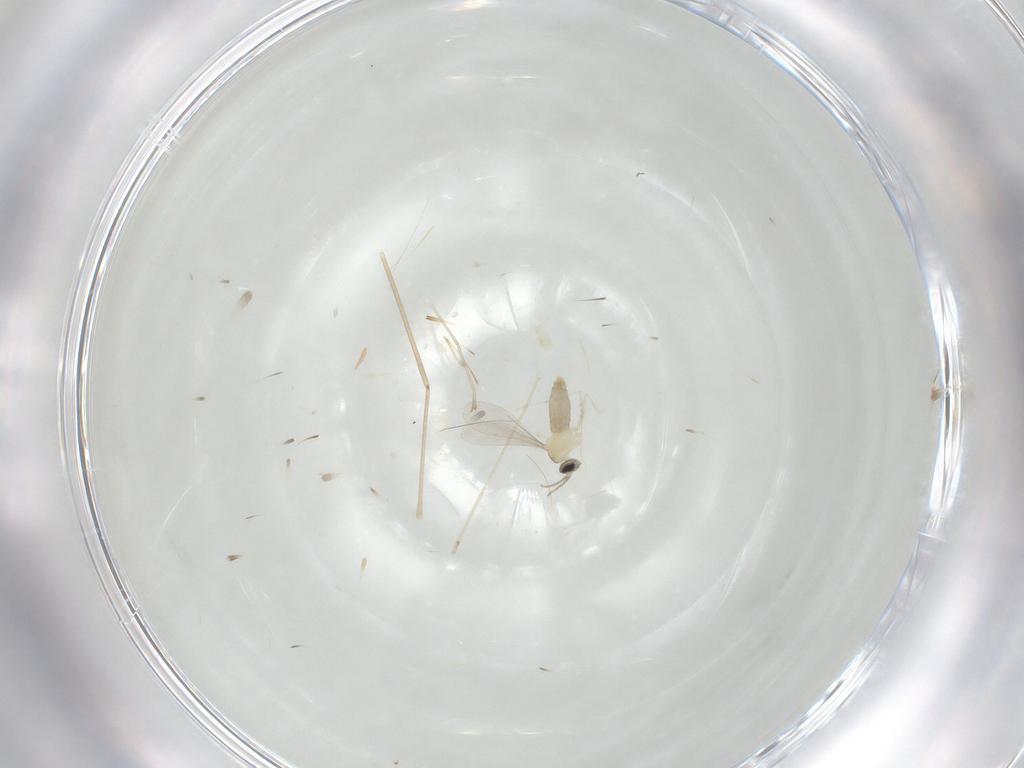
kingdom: Animalia
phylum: Arthropoda
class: Insecta
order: Diptera
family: Cecidomyiidae
